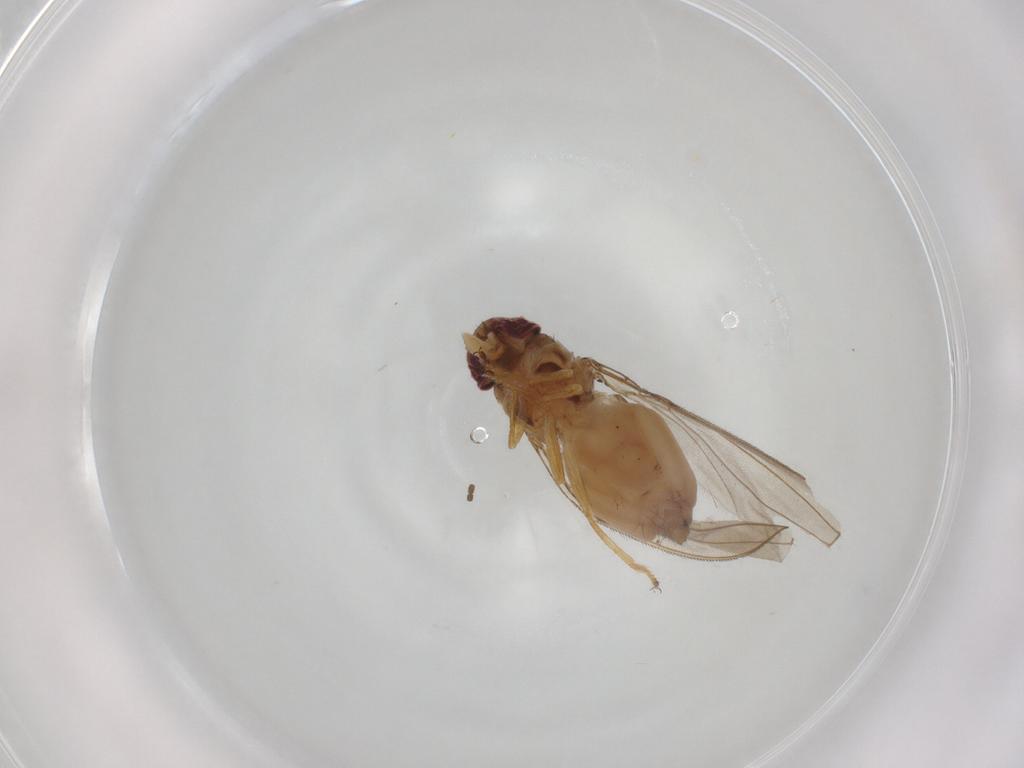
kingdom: Animalia
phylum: Arthropoda
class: Insecta
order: Diptera
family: Asteiidae
